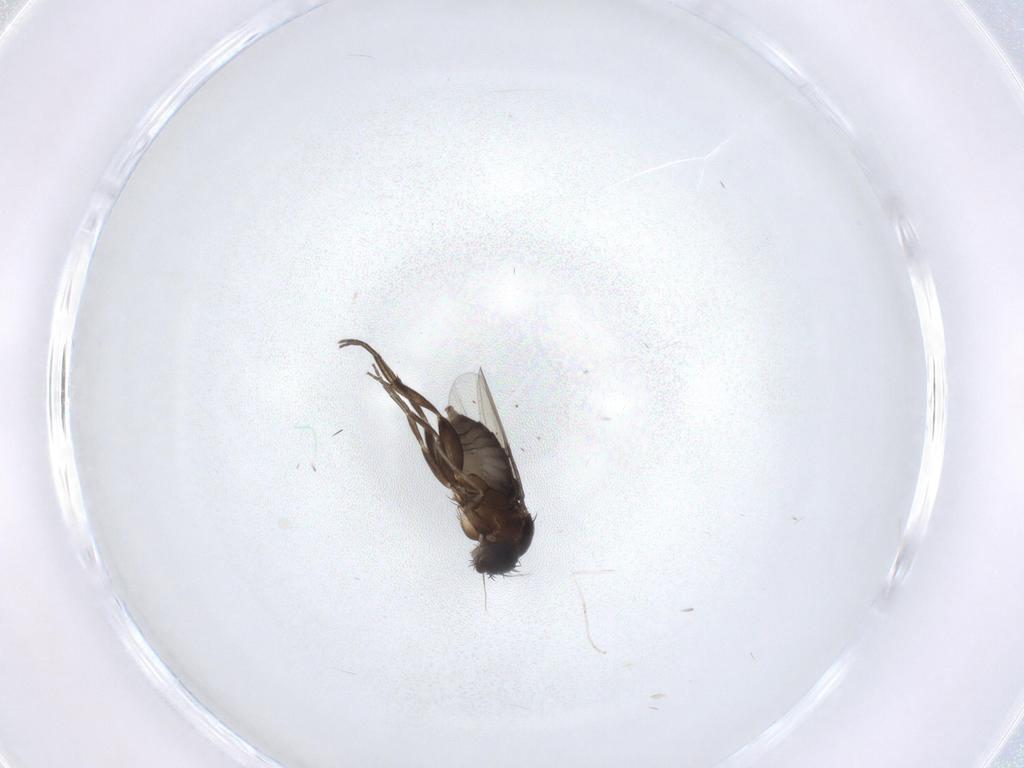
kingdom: Animalia
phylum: Arthropoda
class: Insecta
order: Diptera
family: Phoridae
